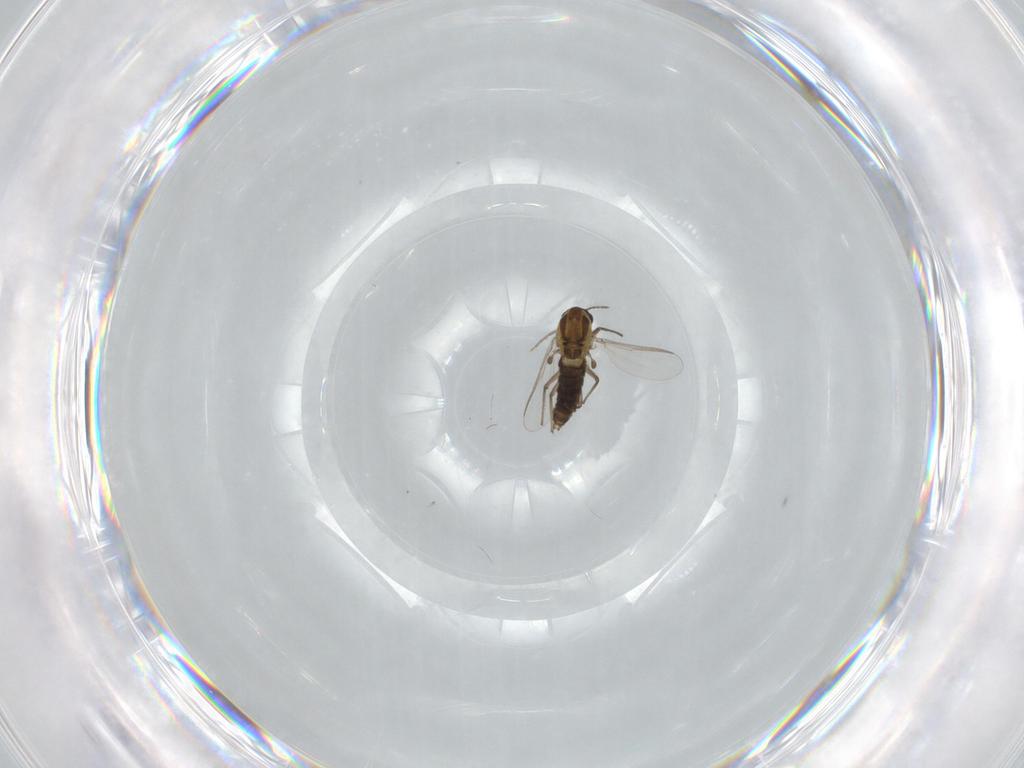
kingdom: Animalia
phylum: Arthropoda
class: Insecta
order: Diptera
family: Chironomidae
